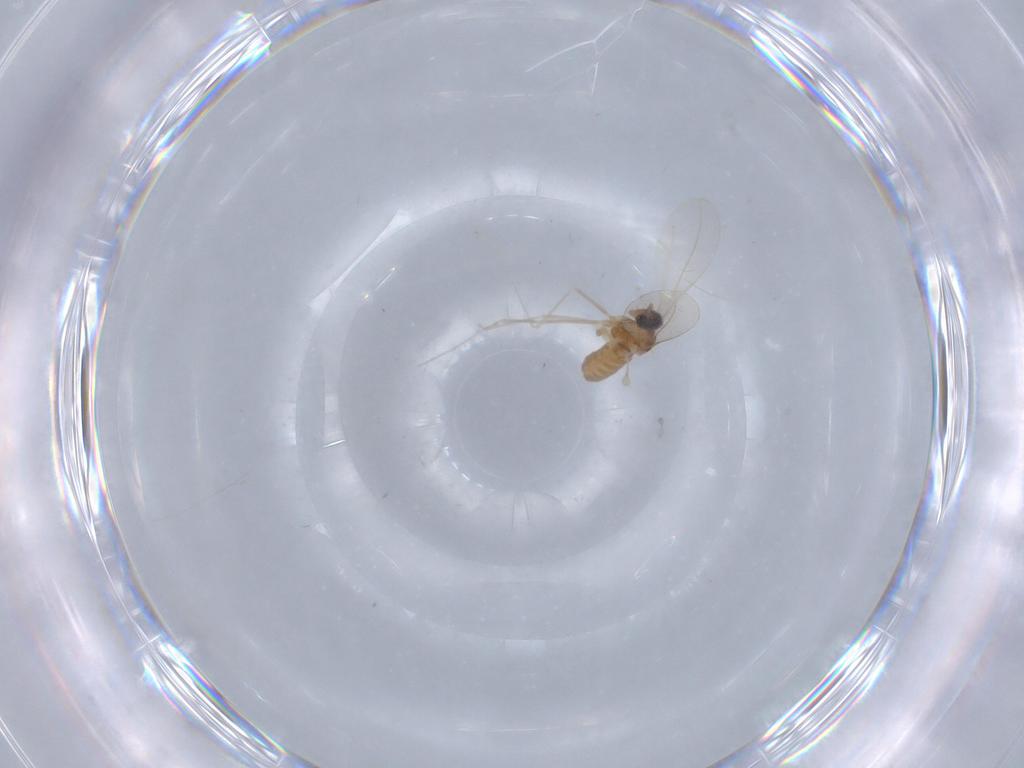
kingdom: Animalia
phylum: Arthropoda
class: Insecta
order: Diptera
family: Cecidomyiidae
